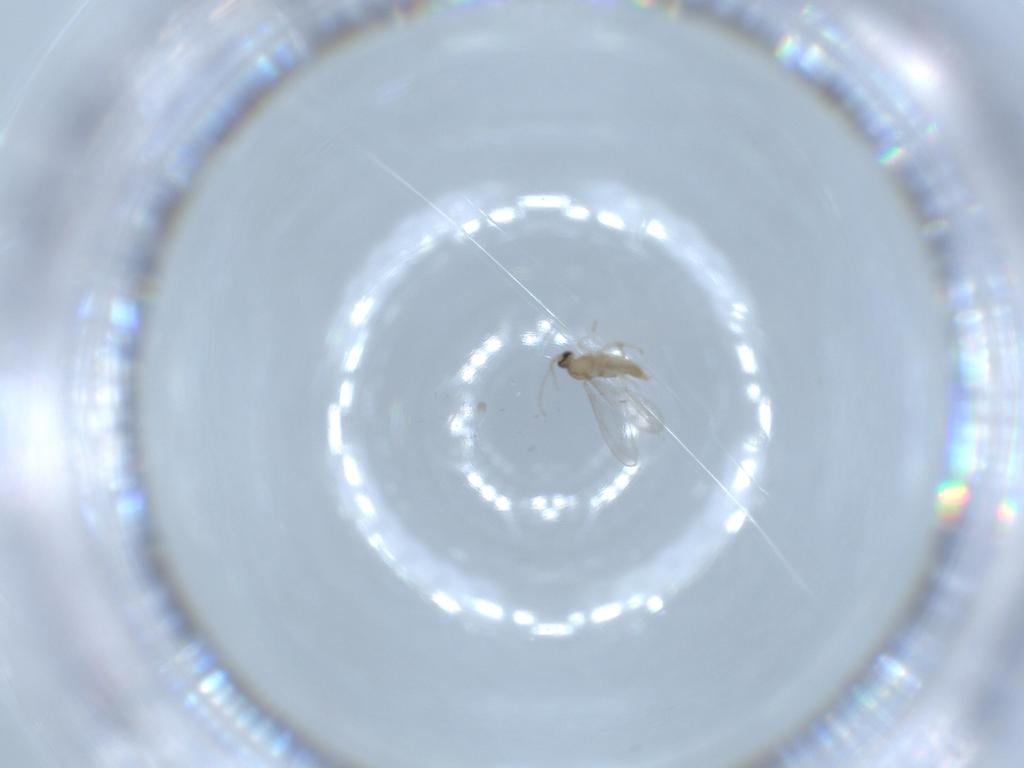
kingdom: Animalia
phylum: Arthropoda
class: Insecta
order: Diptera
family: Cecidomyiidae
